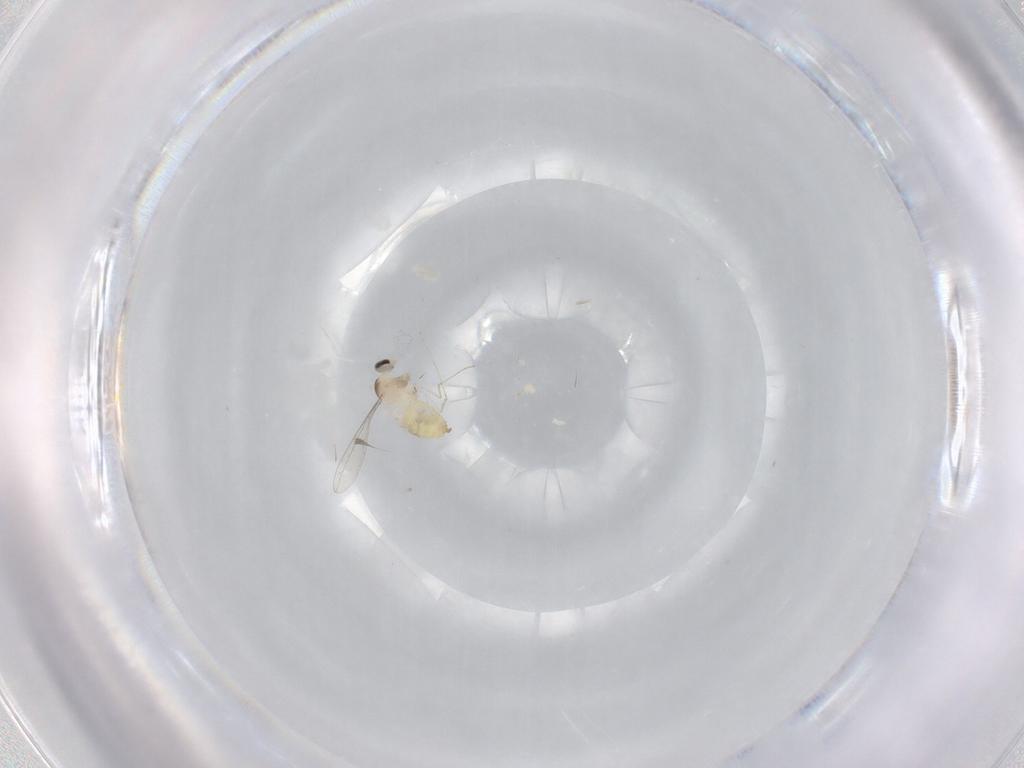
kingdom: Animalia
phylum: Arthropoda
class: Insecta
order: Diptera
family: Cecidomyiidae
